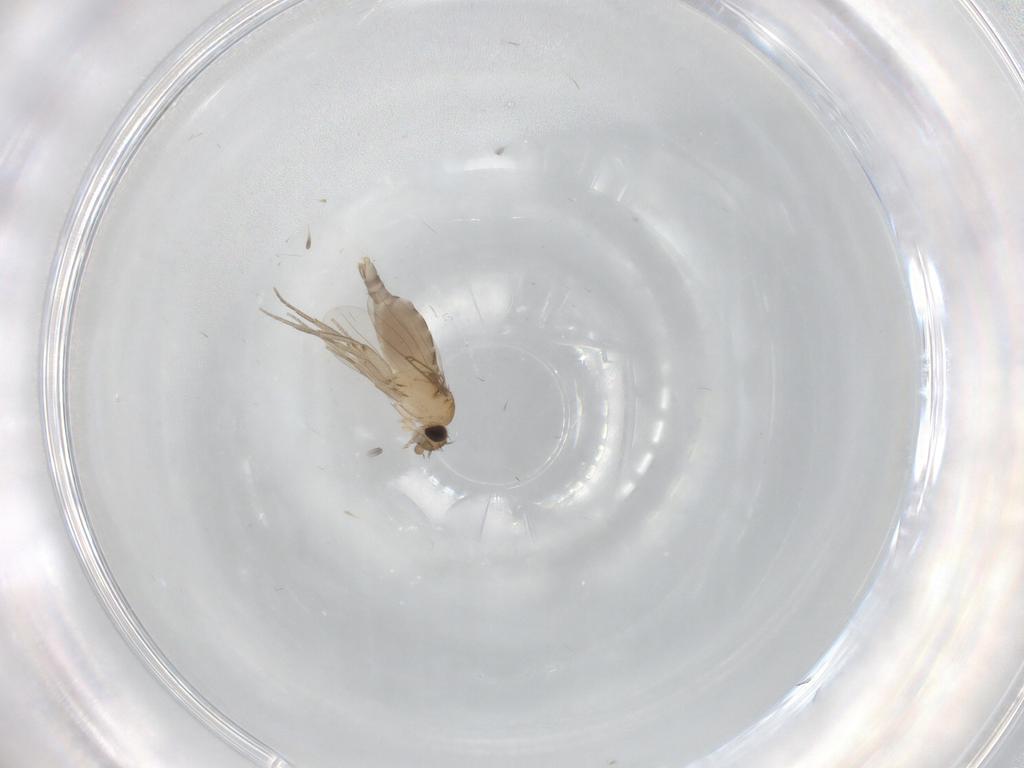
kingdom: Animalia
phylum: Arthropoda
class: Insecta
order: Diptera
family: Phoridae
